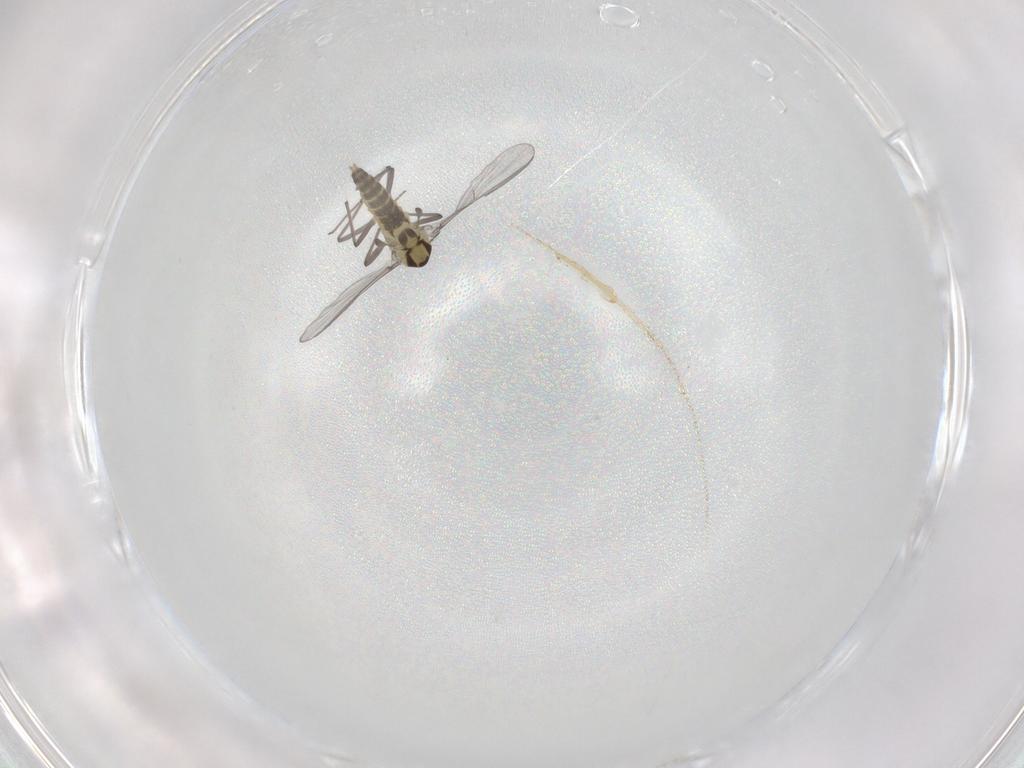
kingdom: Animalia
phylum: Arthropoda
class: Insecta
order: Diptera
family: Chironomidae
